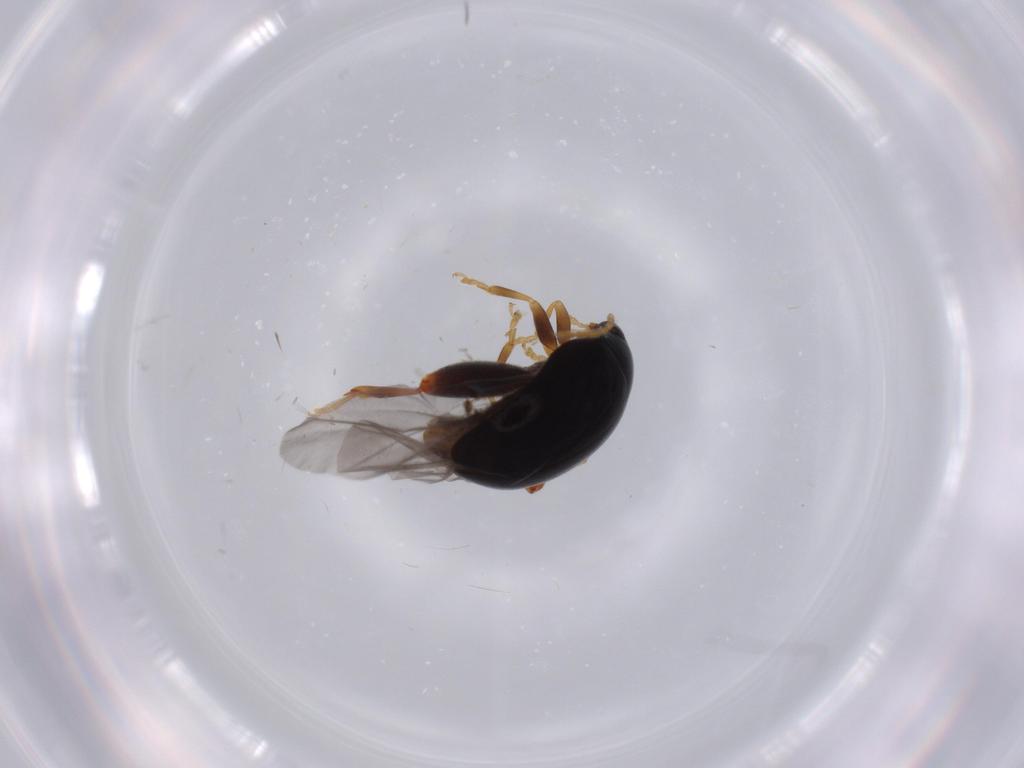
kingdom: Animalia
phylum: Arthropoda
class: Insecta
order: Coleoptera
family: Chrysomelidae
